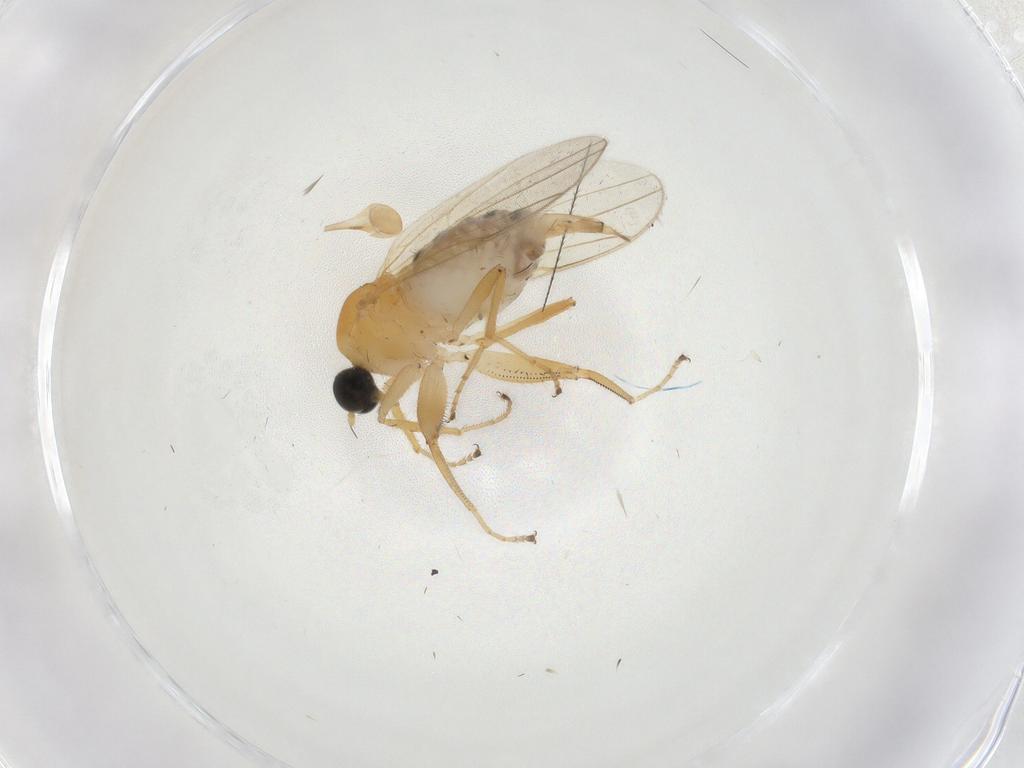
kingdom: Animalia
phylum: Arthropoda
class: Insecta
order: Diptera
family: Hybotidae
